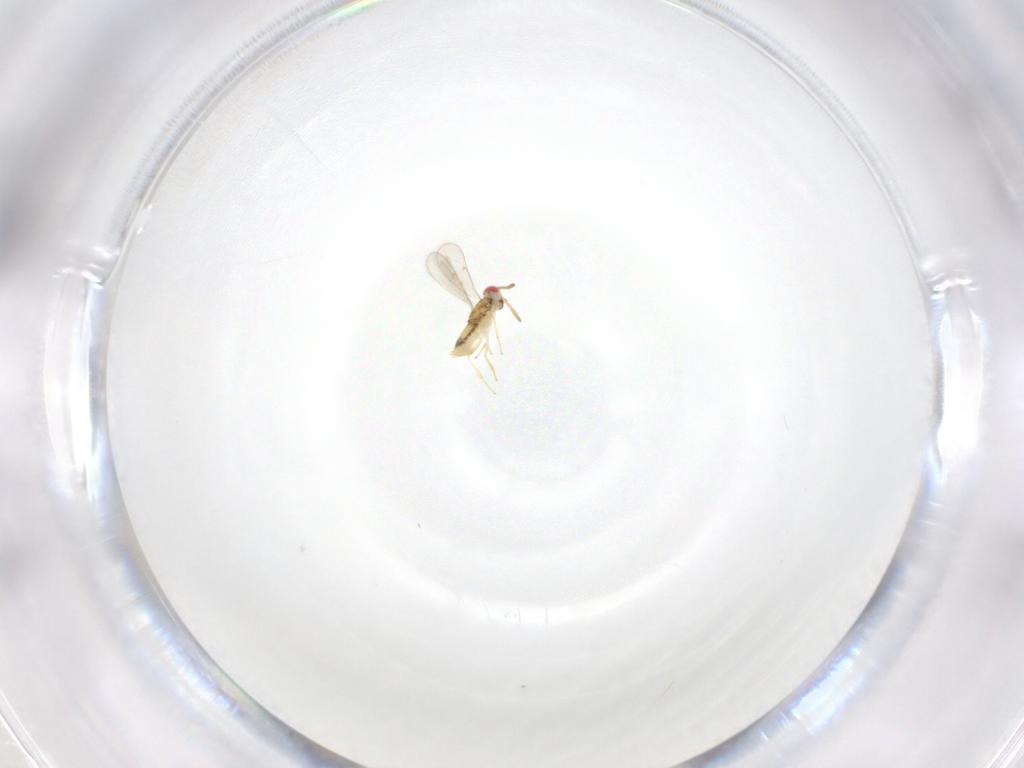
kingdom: Animalia
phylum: Arthropoda
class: Insecta
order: Hymenoptera
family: Aphelinidae
